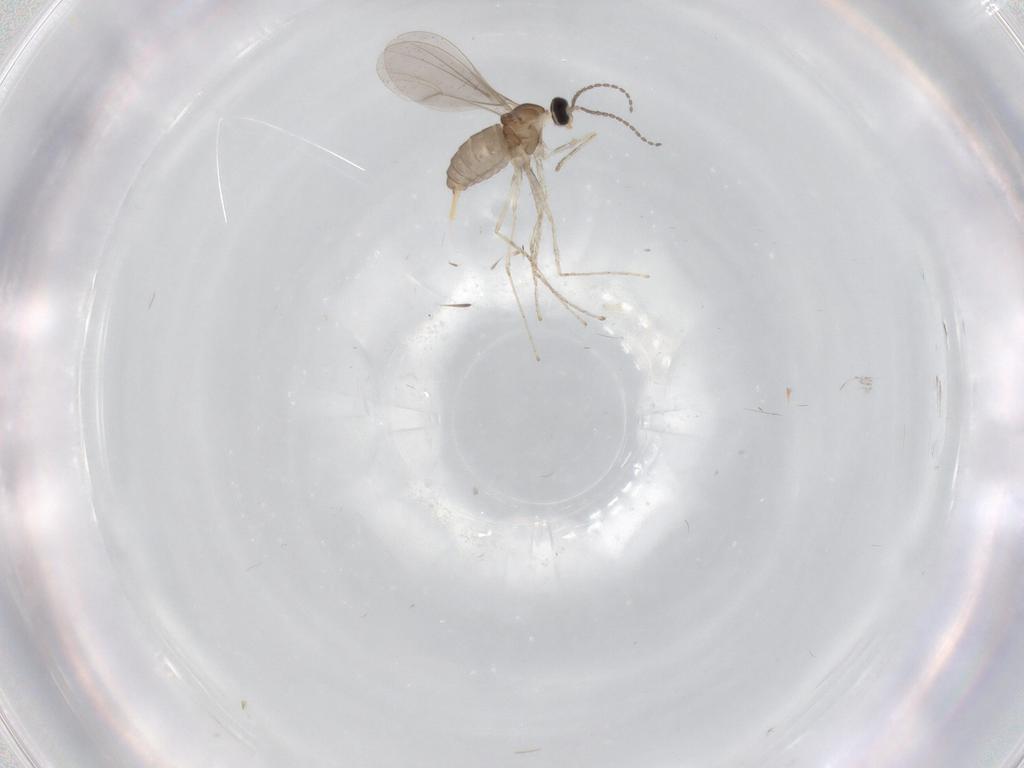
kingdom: Animalia
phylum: Arthropoda
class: Insecta
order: Diptera
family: Cecidomyiidae
